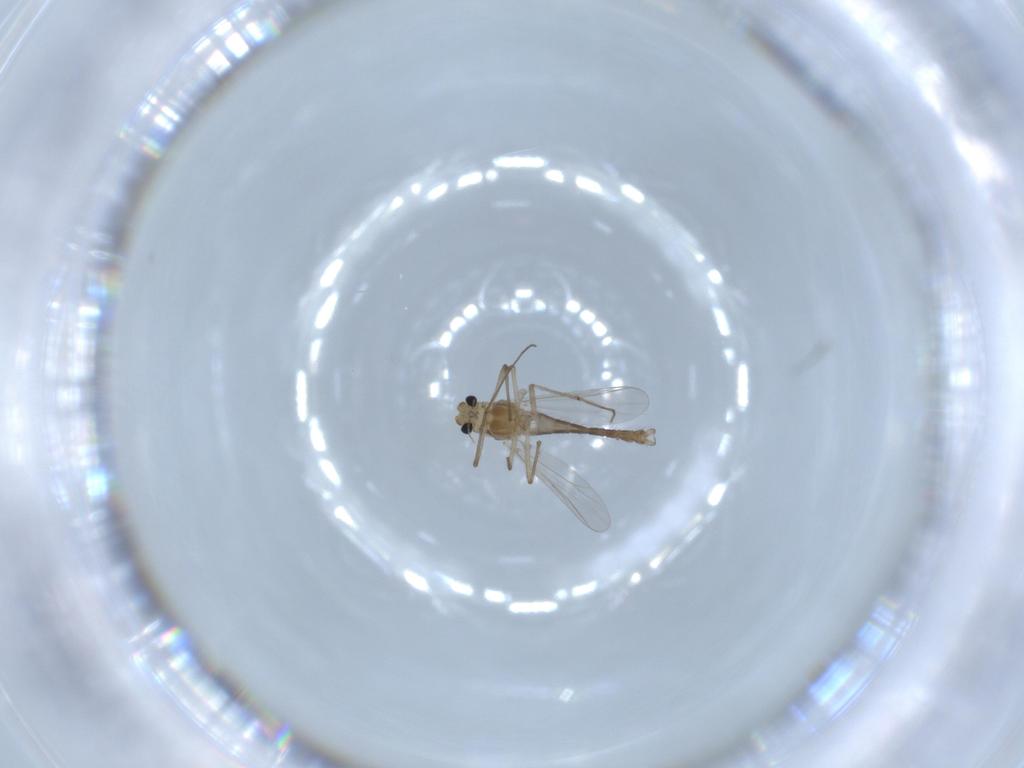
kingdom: Animalia
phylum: Arthropoda
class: Insecta
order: Diptera
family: Chironomidae
